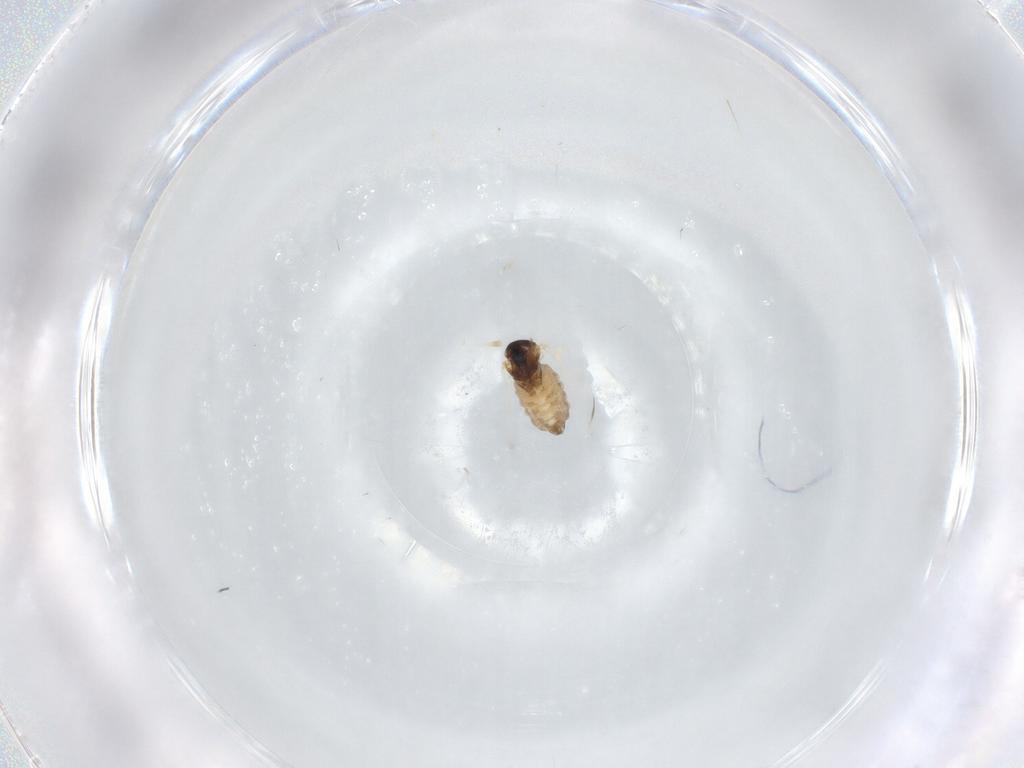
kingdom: Animalia
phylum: Arthropoda
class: Insecta
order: Diptera
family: Cecidomyiidae
